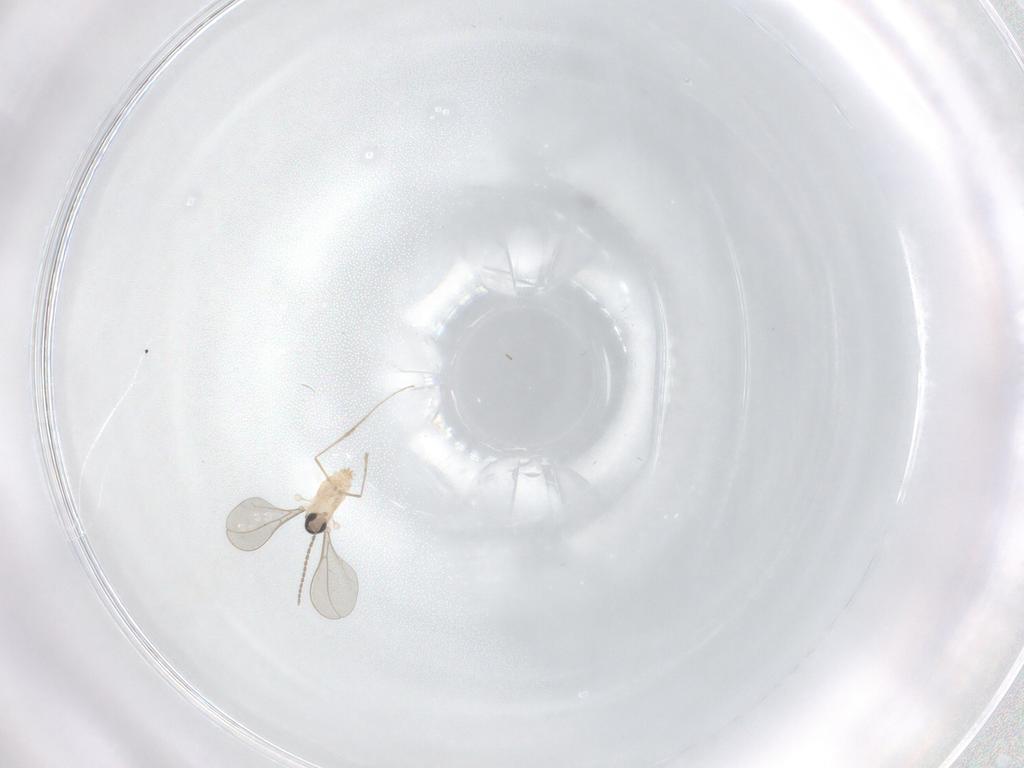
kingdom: Animalia
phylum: Arthropoda
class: Insecta
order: Diptera
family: Cecidomyiidae
